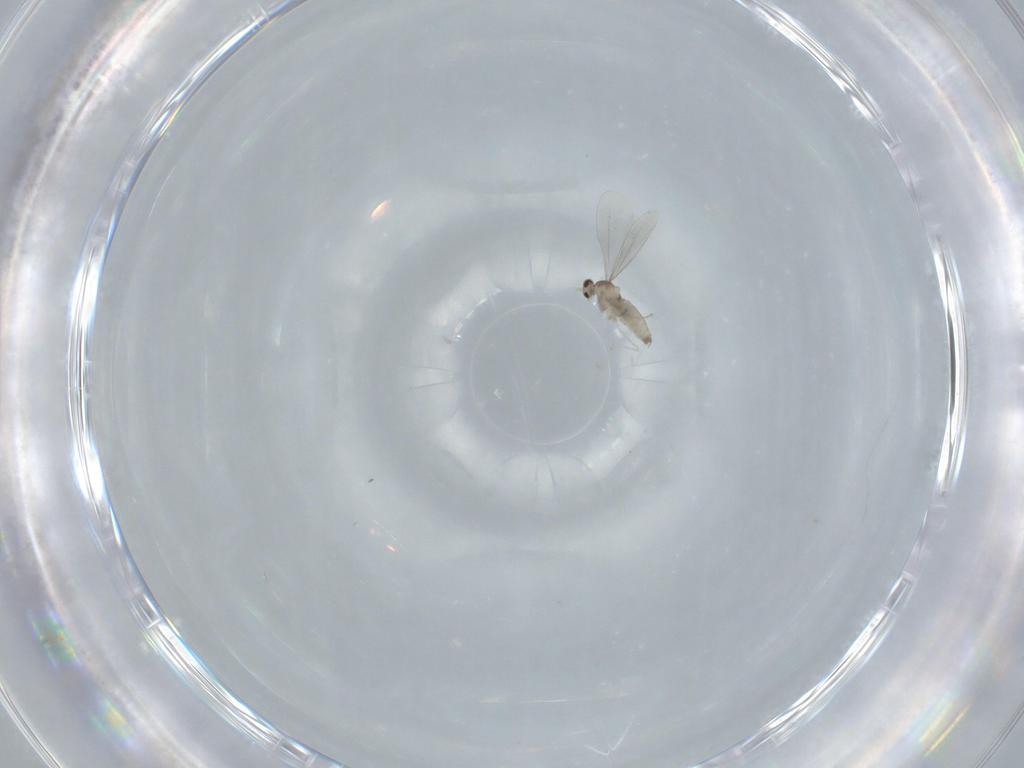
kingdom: Animalia
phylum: Arthropoda
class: Insecta
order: Diptera
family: Cecidomyiidae
